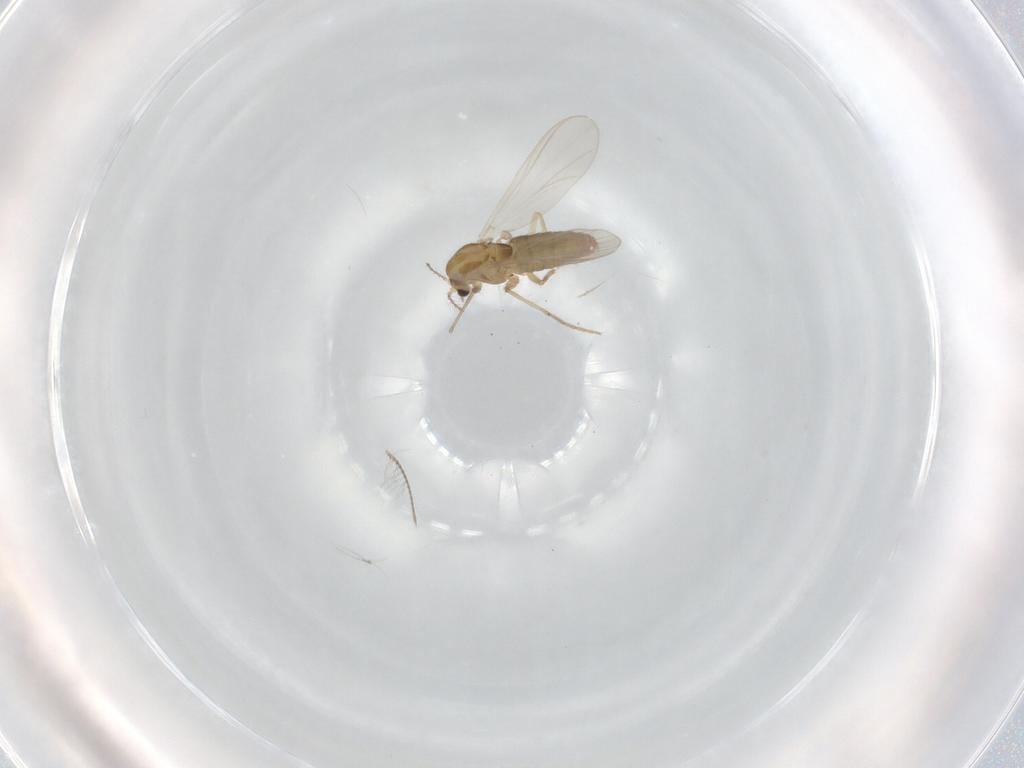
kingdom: Animalia
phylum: Arthropoda
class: Insecta
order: Diptera
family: Chironomidae
